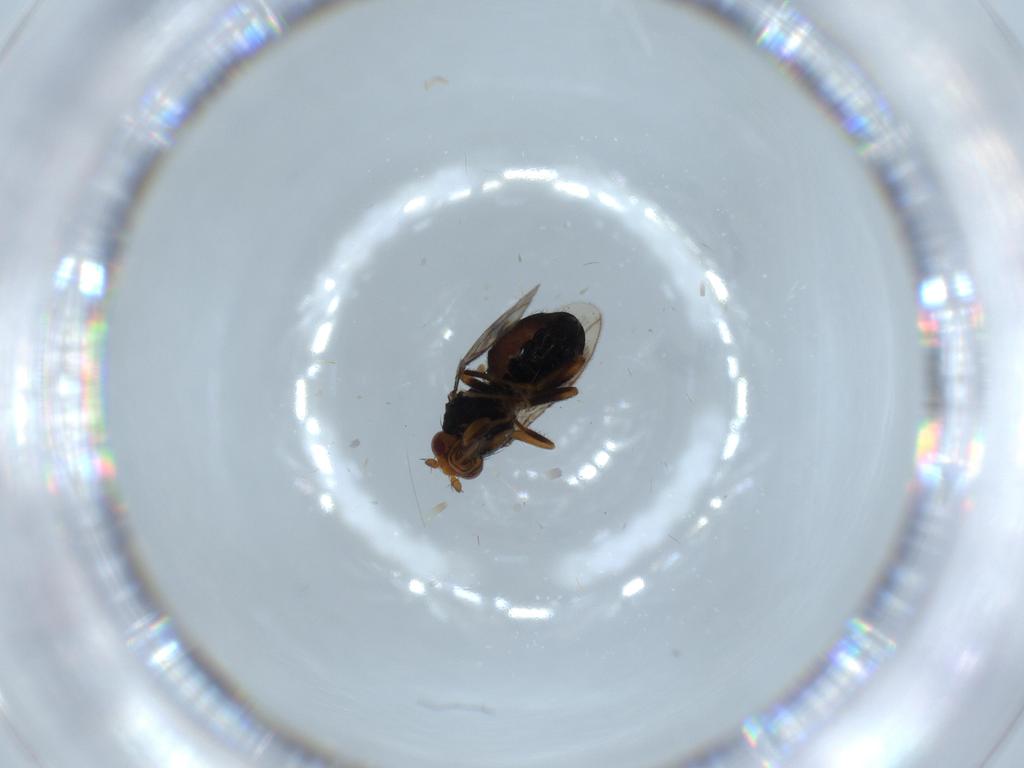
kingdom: Animalia
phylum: Arthropoda
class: Insecta
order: Diptera
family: Sphaeroceridae
